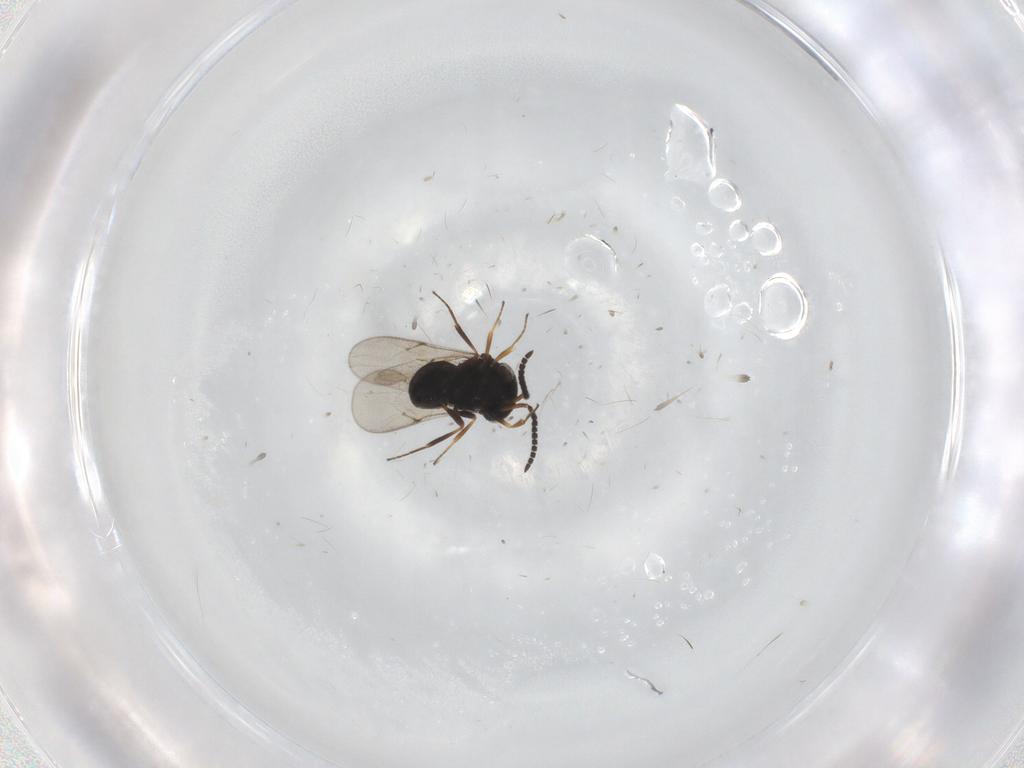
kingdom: Animalia
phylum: Arthropoda
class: Insecta
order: Hymenoptera
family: Scelionidae
